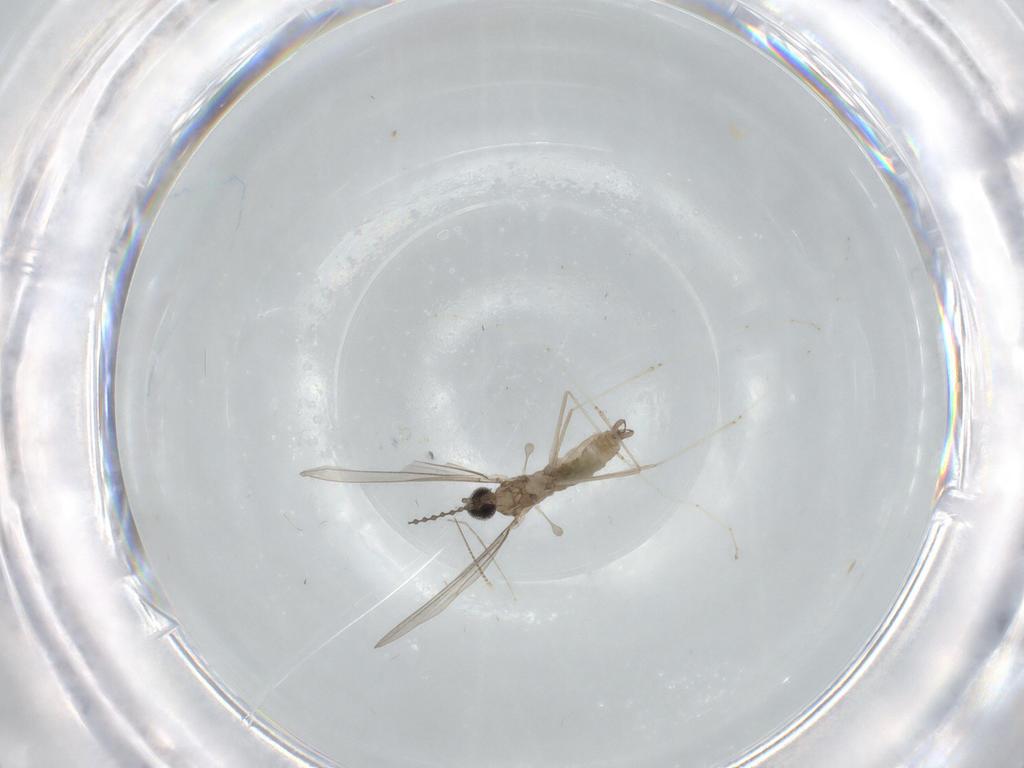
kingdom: Animalia
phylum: Arthropoda
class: Insecta
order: Diptera
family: Cecidomyiidae
